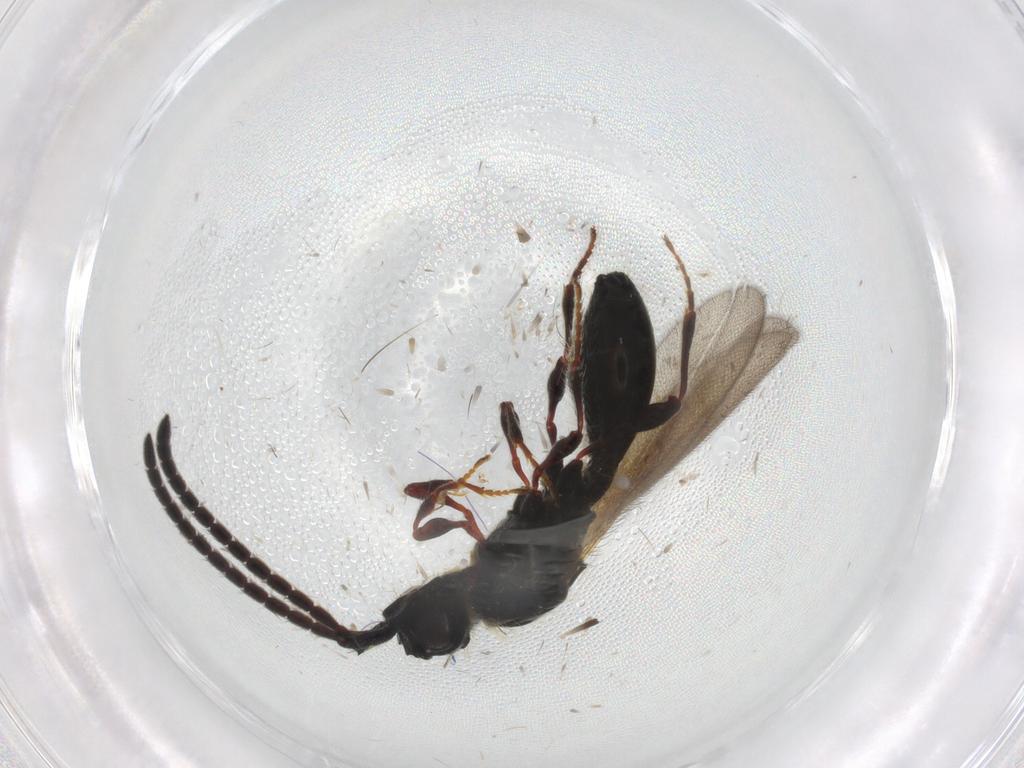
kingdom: Animalia
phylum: Arthropoda
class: Insecta
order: Hymenoptera
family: Diapriidae
